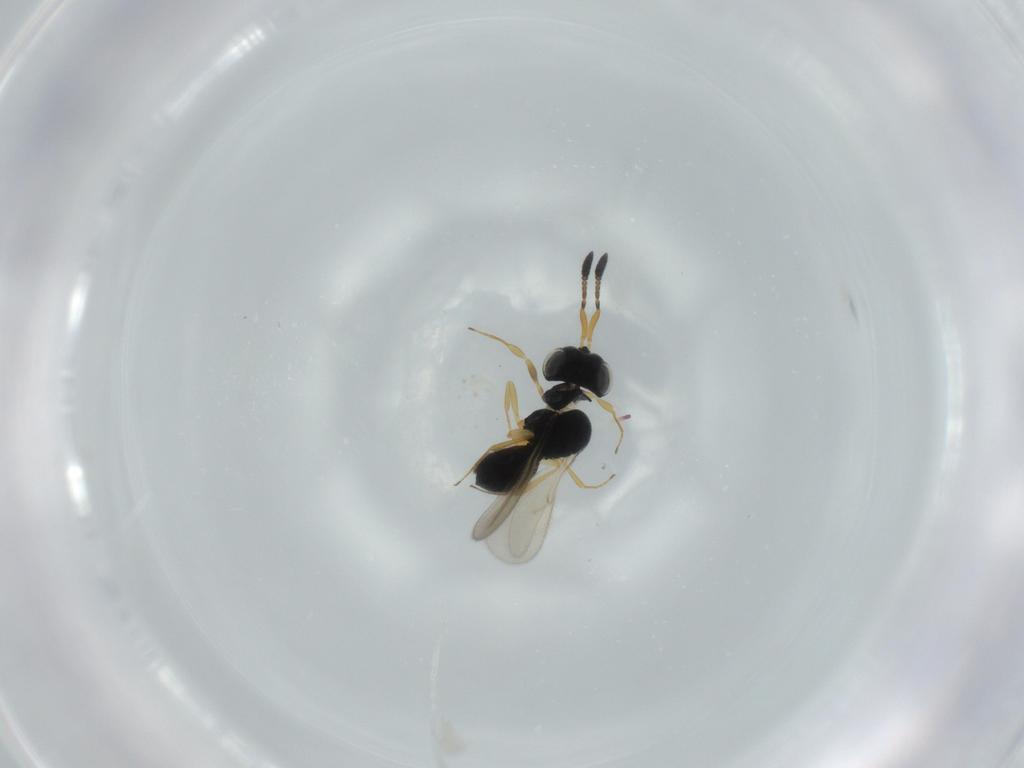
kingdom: Animalia
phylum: Arthropoda
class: Insecta
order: Hymenoptera
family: Scelionidae
